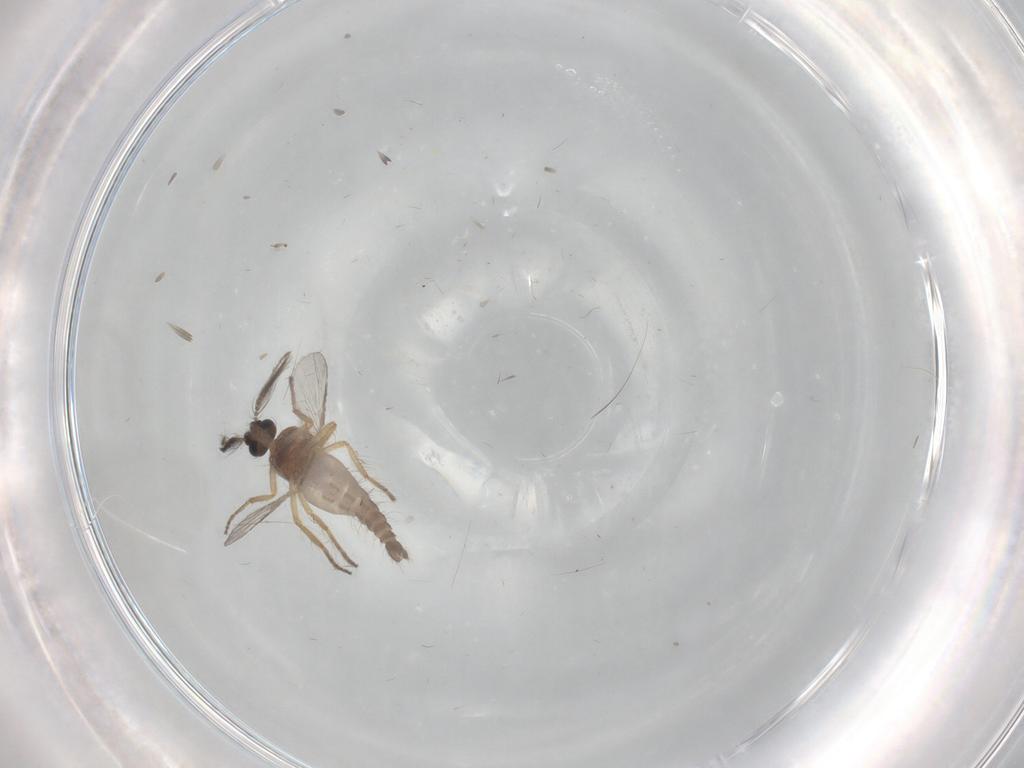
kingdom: Animalia
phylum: Arthropoda
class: Insecta
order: Diptera
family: Ceratopogonidae
